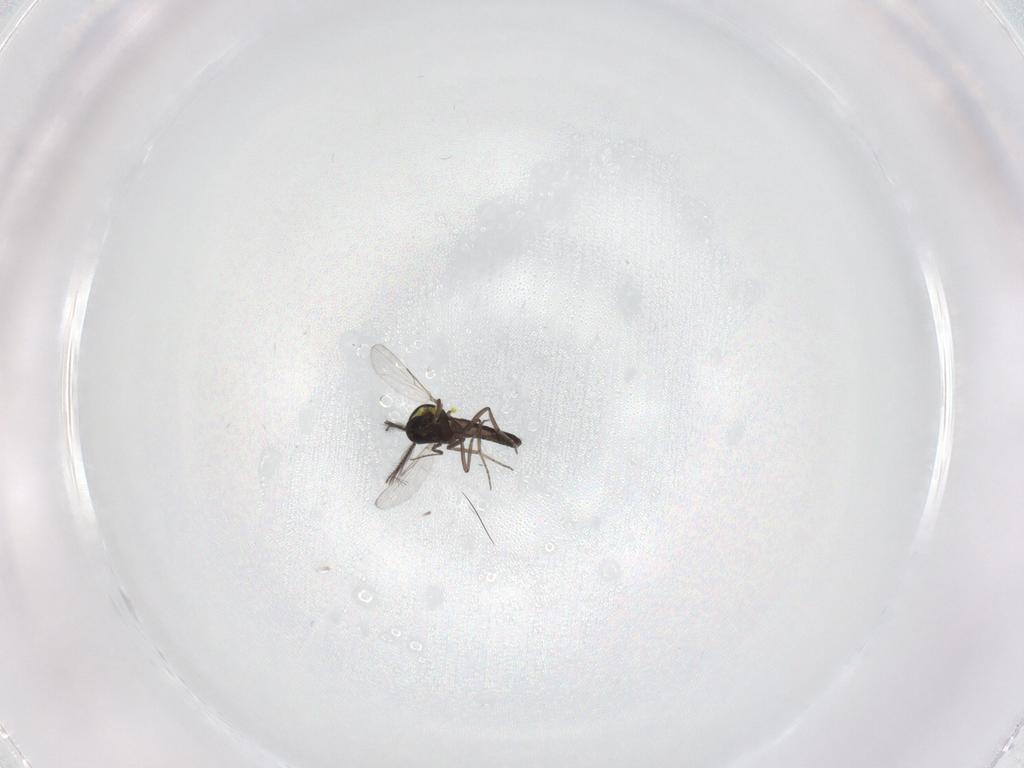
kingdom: Animalia
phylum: Arthropoda
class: Insecta
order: Diptera
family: Ceratopogonidae
